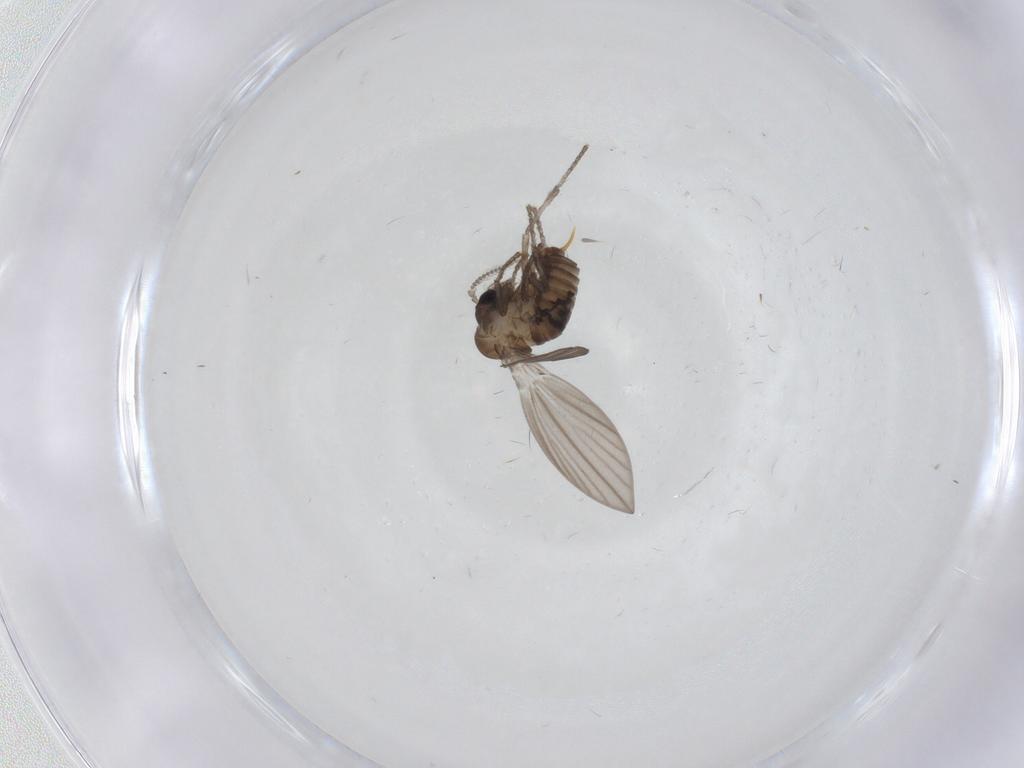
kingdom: Animalia
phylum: Arthropoda
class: Insecta
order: Diptera
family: Psychodidae
